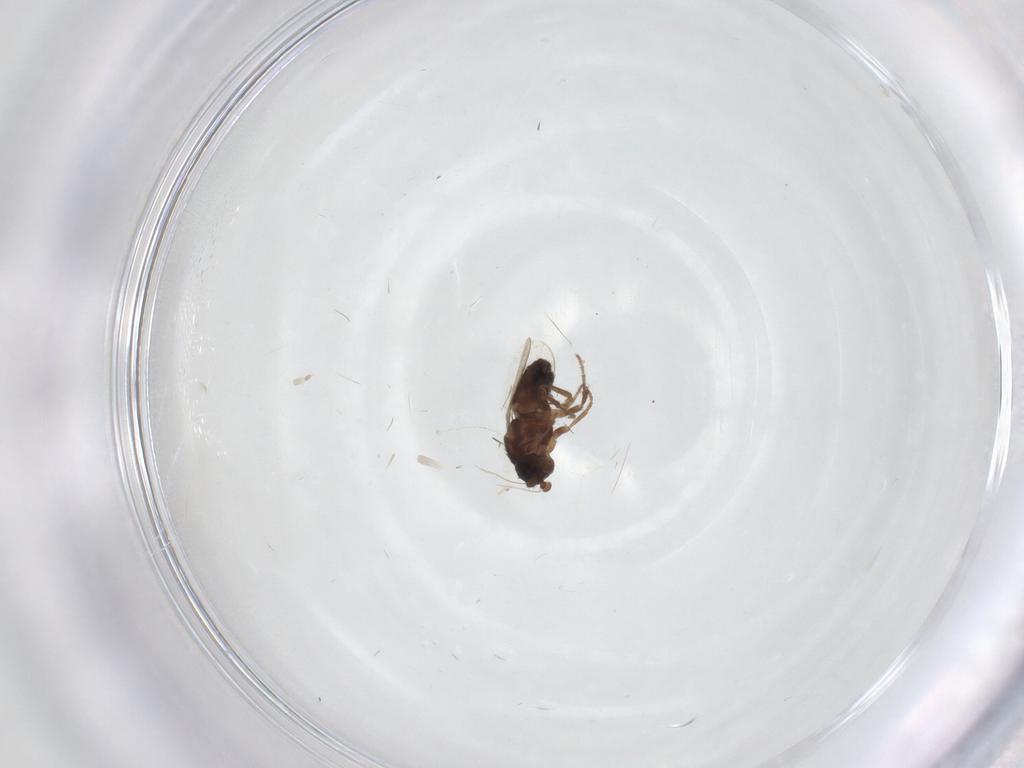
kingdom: Animalia
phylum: Arthropoda
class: Insecta
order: Diptera
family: Sphaeroceridae
